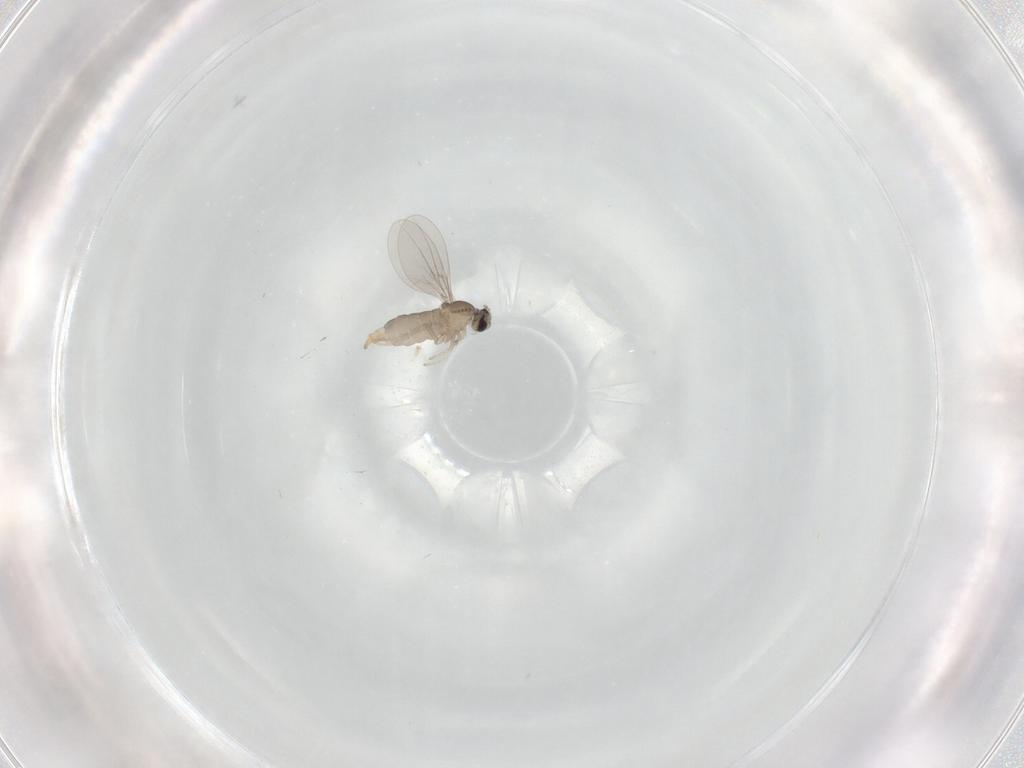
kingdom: Animalia
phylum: Arthropoda
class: Insecta
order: Diptera
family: Cecidomyiidae
